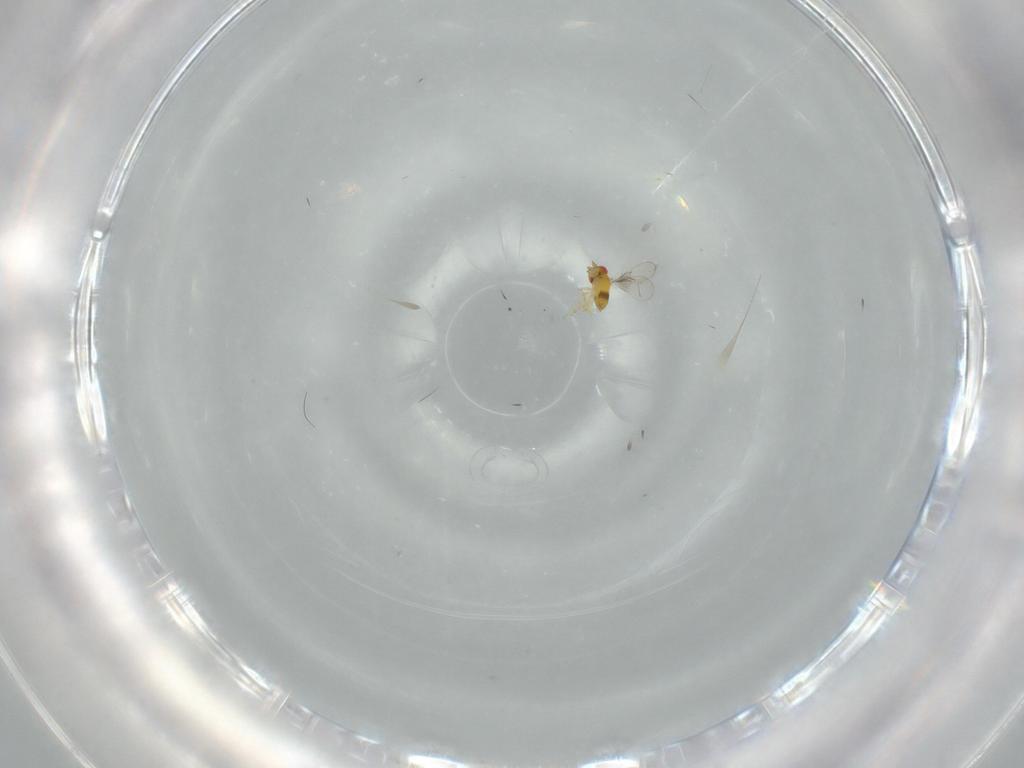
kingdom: Animalia
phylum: Arthropoda
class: Insecta
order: Hymenoptera
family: Trichogrammatidae
